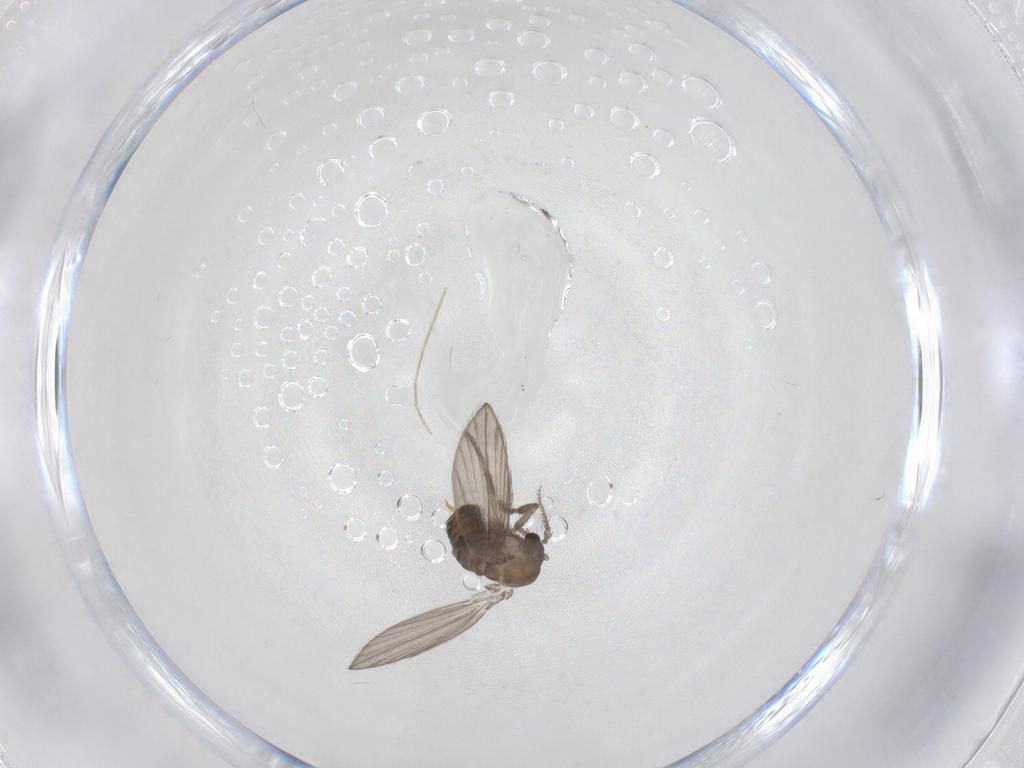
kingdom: Animalia
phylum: Arthropoda
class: Insecta
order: Diptera
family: Psychodidae
